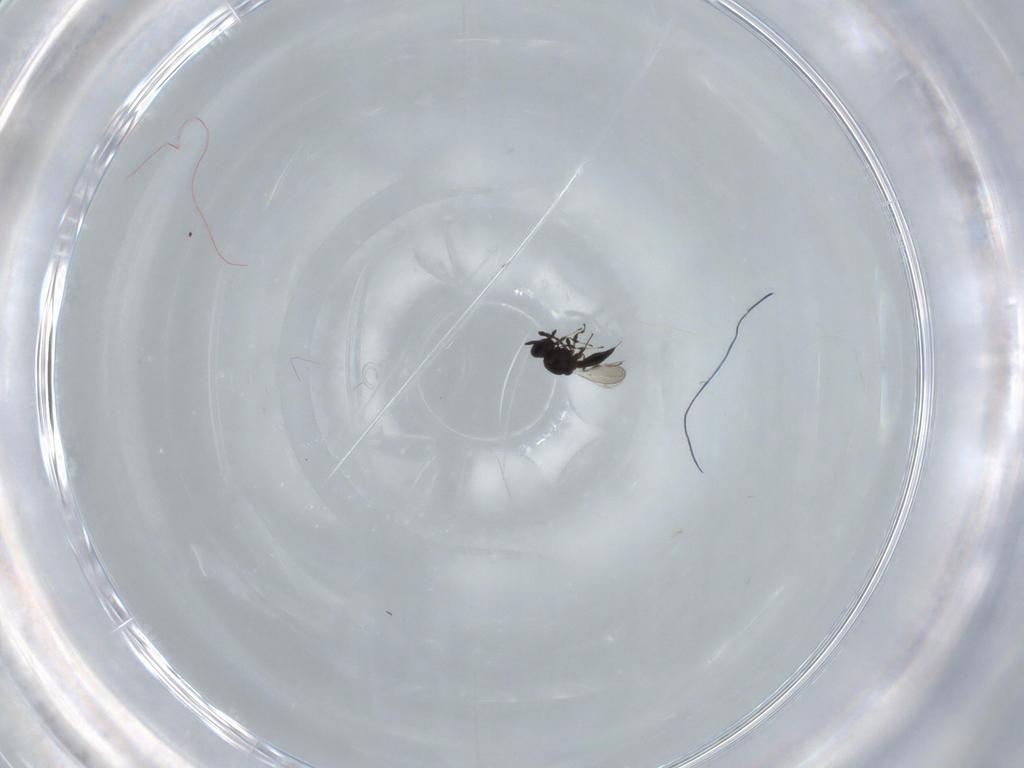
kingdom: Animalia
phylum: Arthropoda
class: Insecta
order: Hymenoptera
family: Platygastridae
